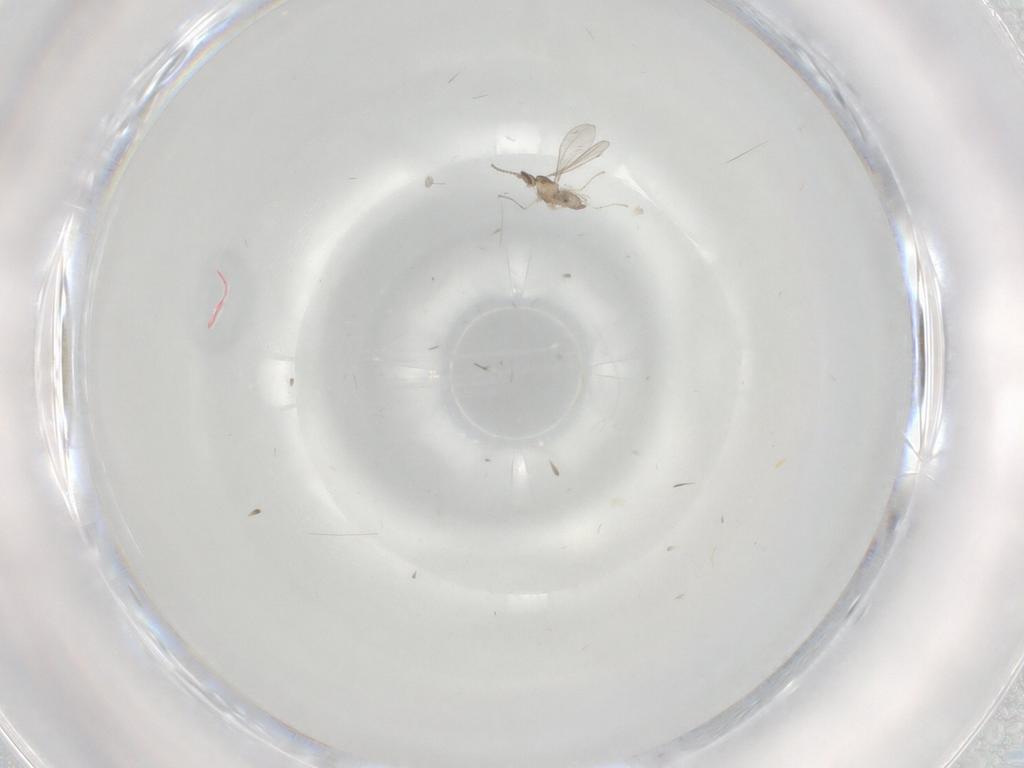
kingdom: Animalia
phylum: Arthropoda
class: Insecta
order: Diptera
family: Cecidomyiidae
